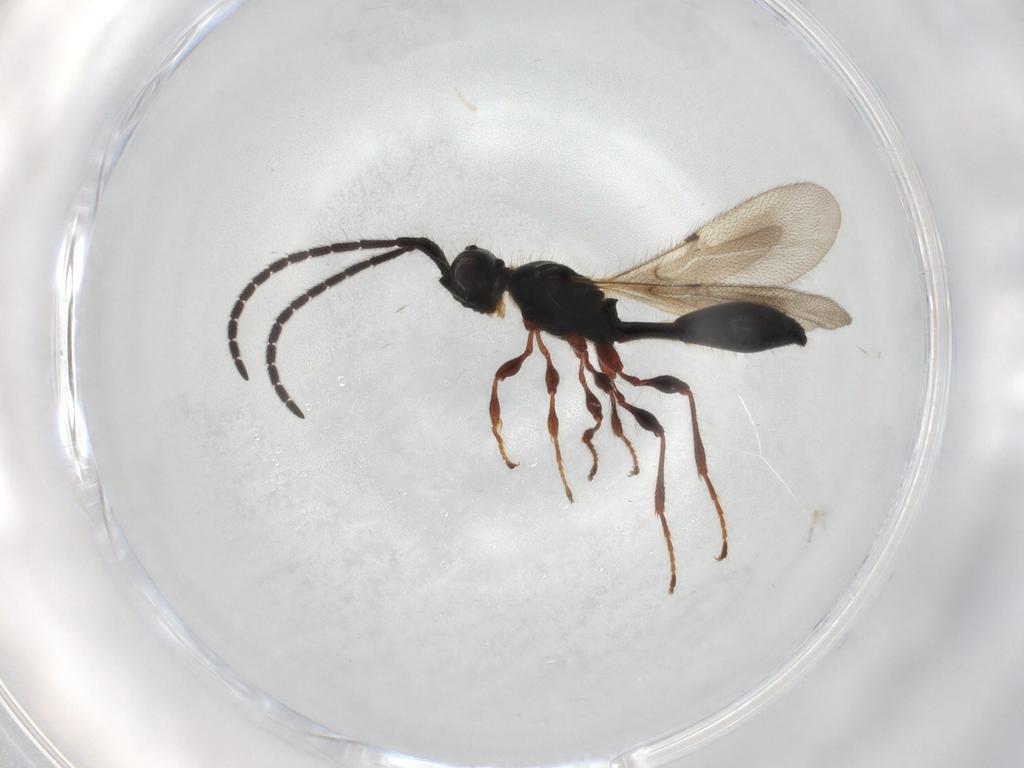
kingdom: Animalia
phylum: Arthropoda
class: Insecta
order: Hymenoptera
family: Diapriidae
